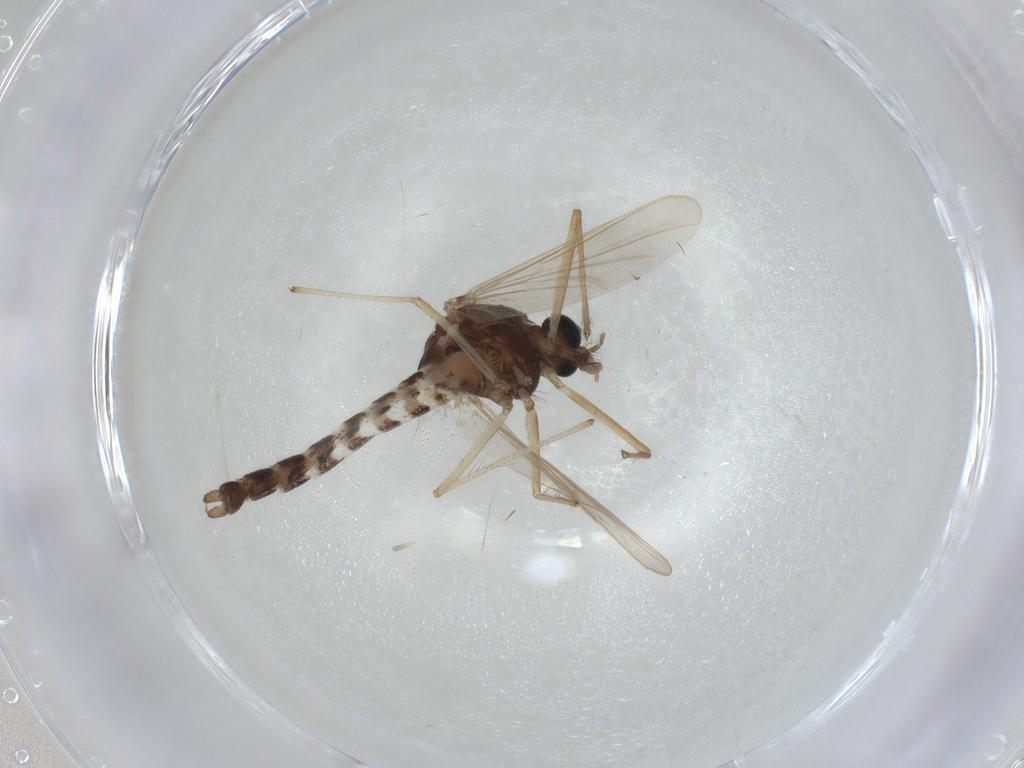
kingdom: Animalia
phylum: Arthropoda
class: Insecta
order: Diptera
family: Chironomidae
